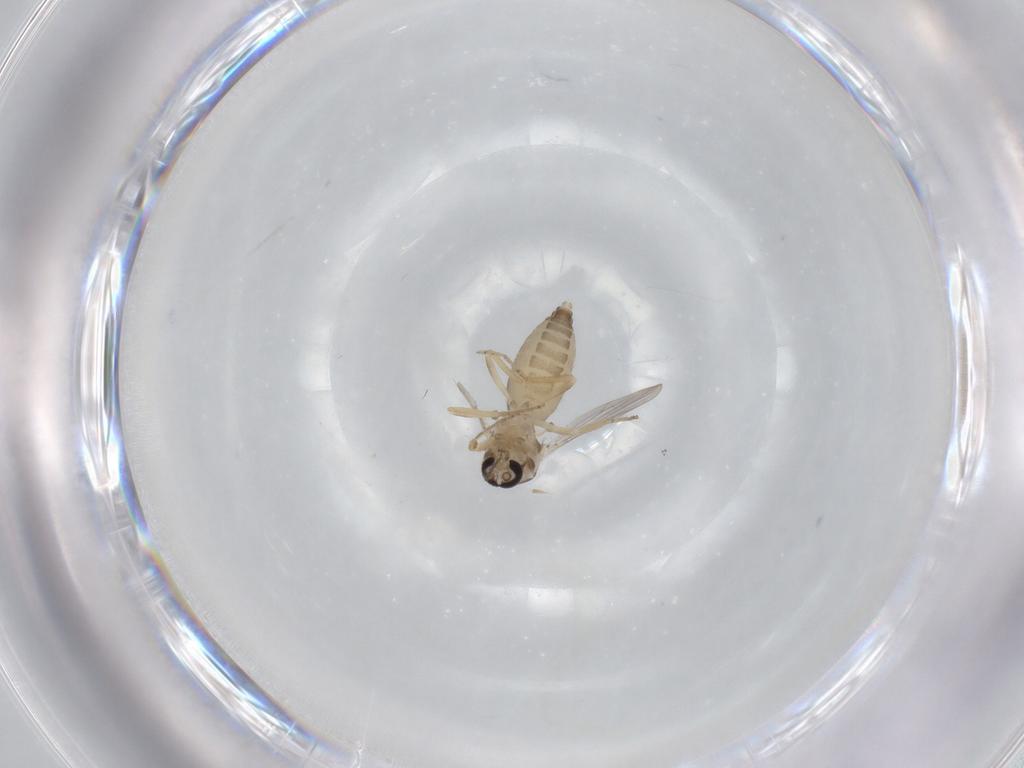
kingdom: Animalia
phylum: Arthropoda
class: Insecta
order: Diptera
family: Ceratopogonidae
